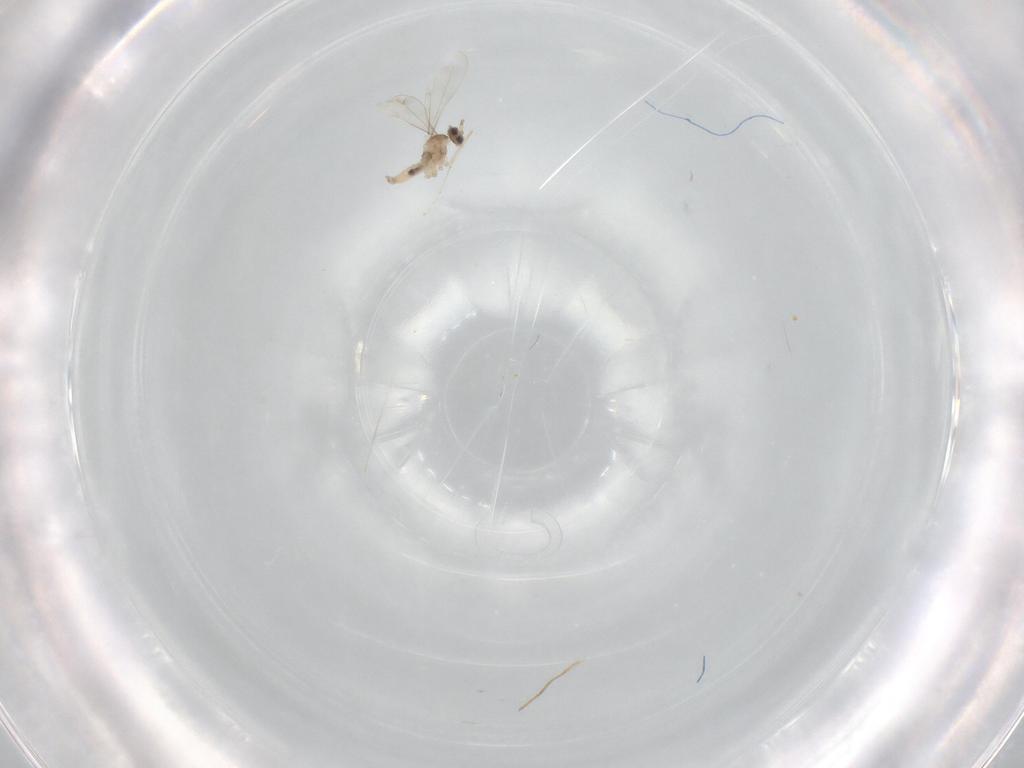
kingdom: Animalia
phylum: Arthropoda
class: Insecta
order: Diptera
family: Cecidomyiidae
